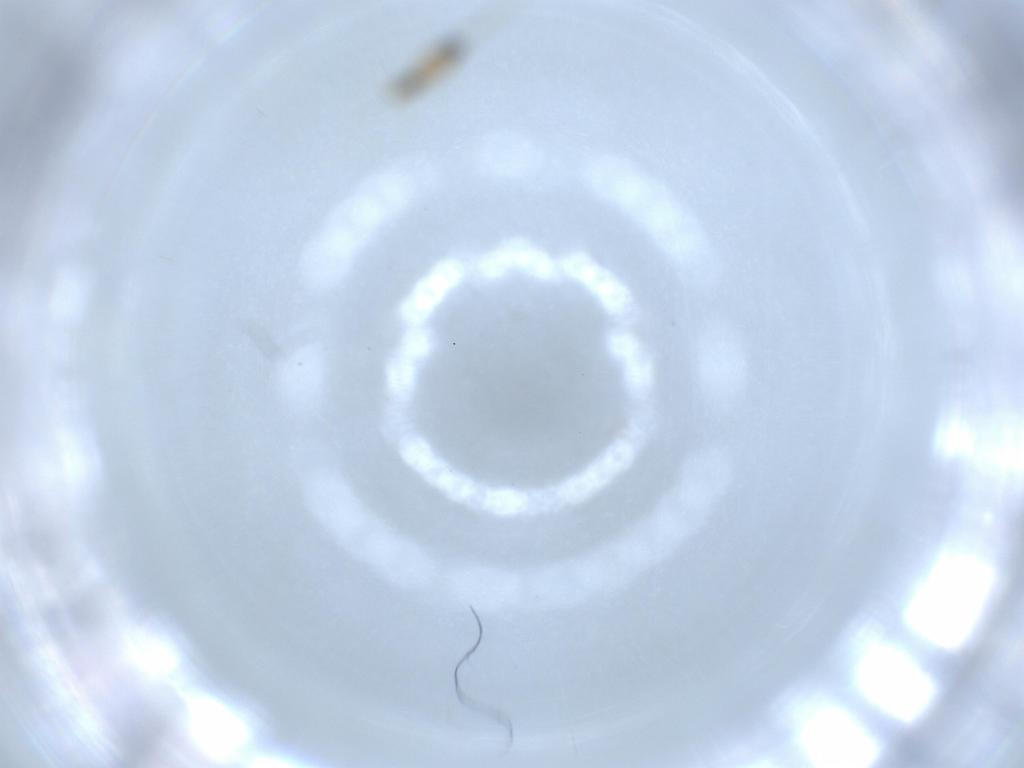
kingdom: Animalia
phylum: Arthropoda
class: Insecta
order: Diptera
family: Cecidomyiidae
